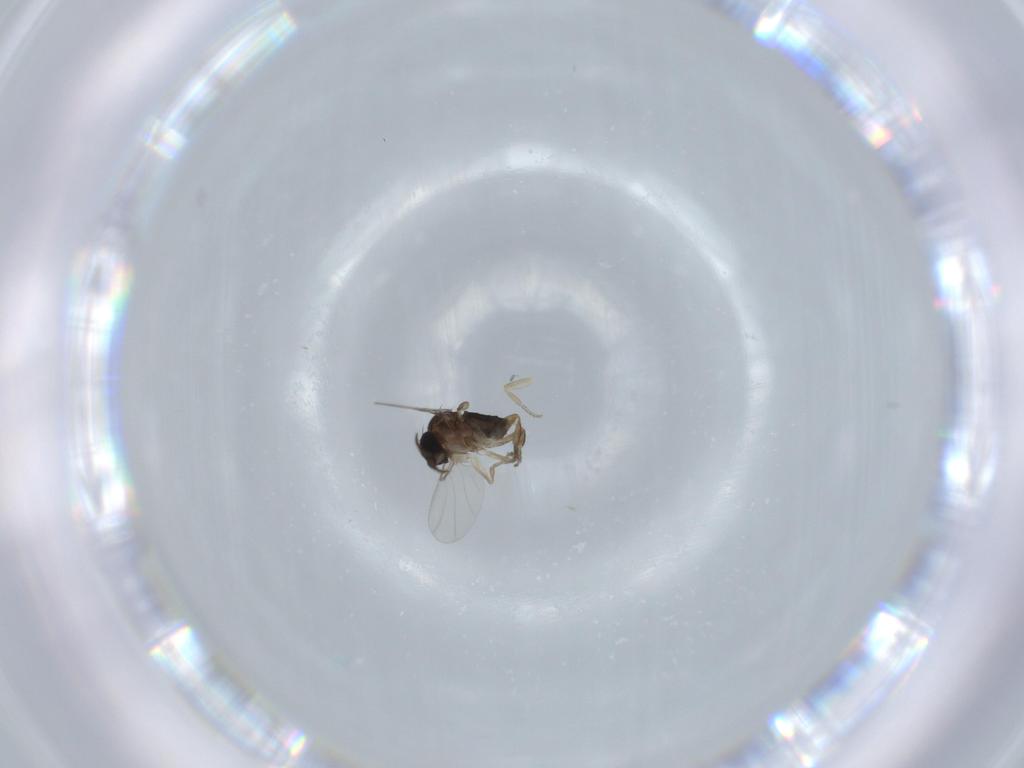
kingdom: Animalia
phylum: Arthropoda
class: Insecta
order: Diptera
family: Phoridae
